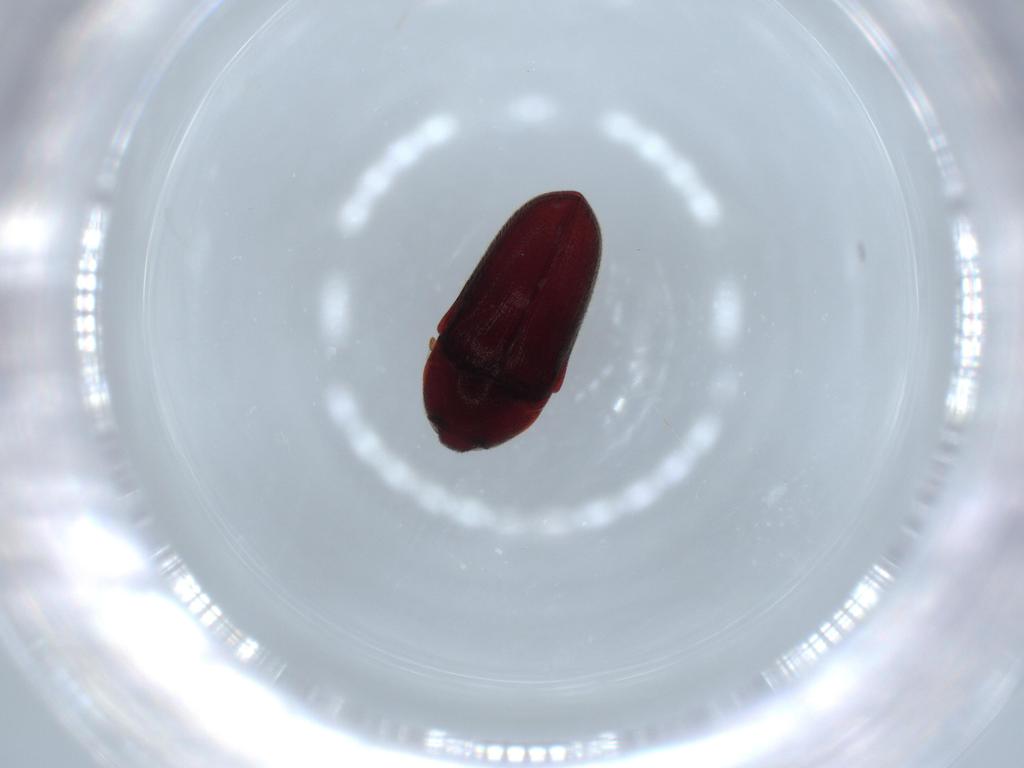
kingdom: Animalia
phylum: Arthropoda
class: Insecta
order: Coleoptera
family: Throscidae
